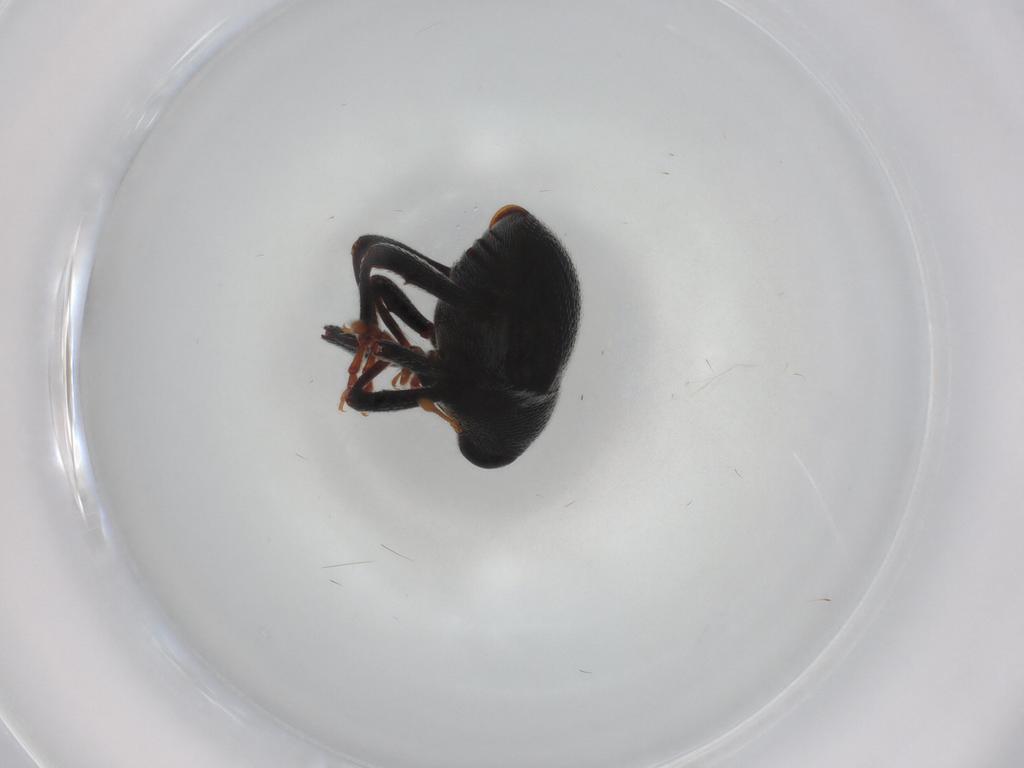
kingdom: Animalia
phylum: Arthropoda
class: Insecta
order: Coleoptera
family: Curculionidae
